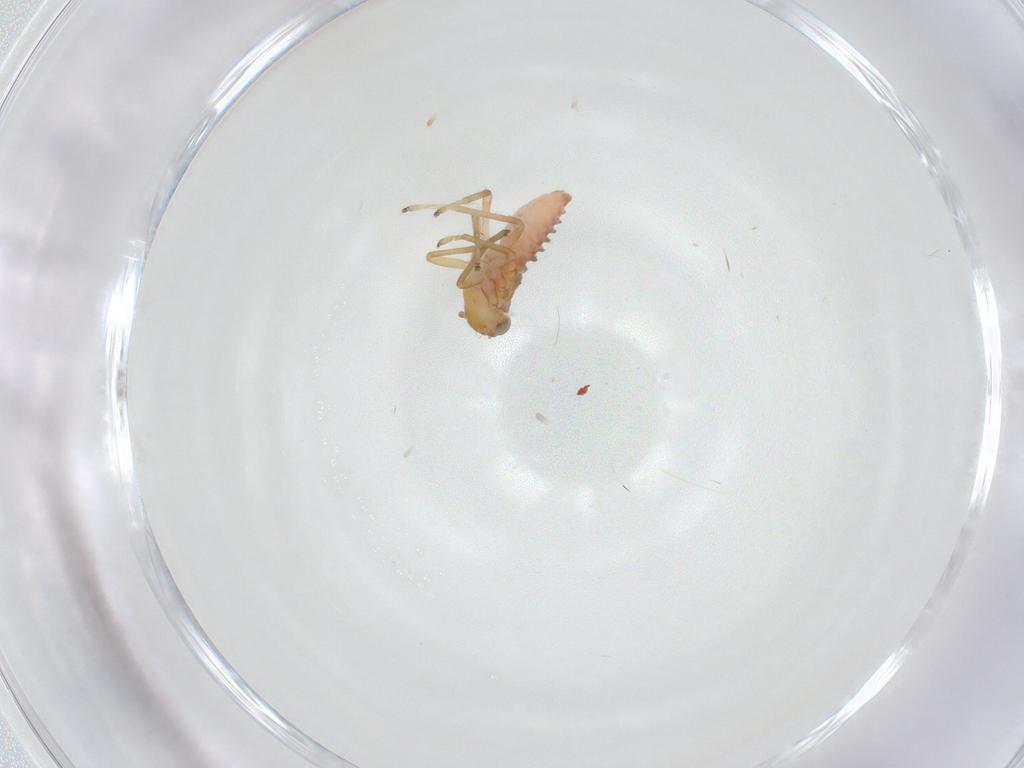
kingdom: Animalia
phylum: Arthropoda
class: Insecta
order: Hemiptera
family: Cicadellidae
